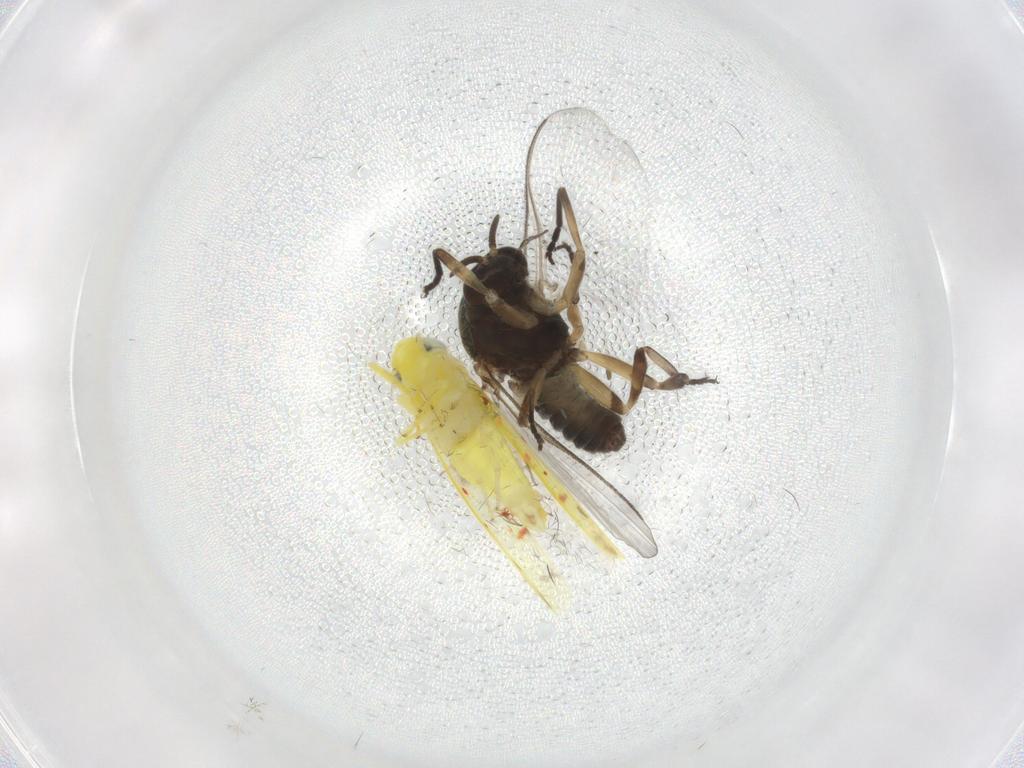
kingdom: Animalia
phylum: Arthropoda
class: Insecta
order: Diptera
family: Simuliidae
